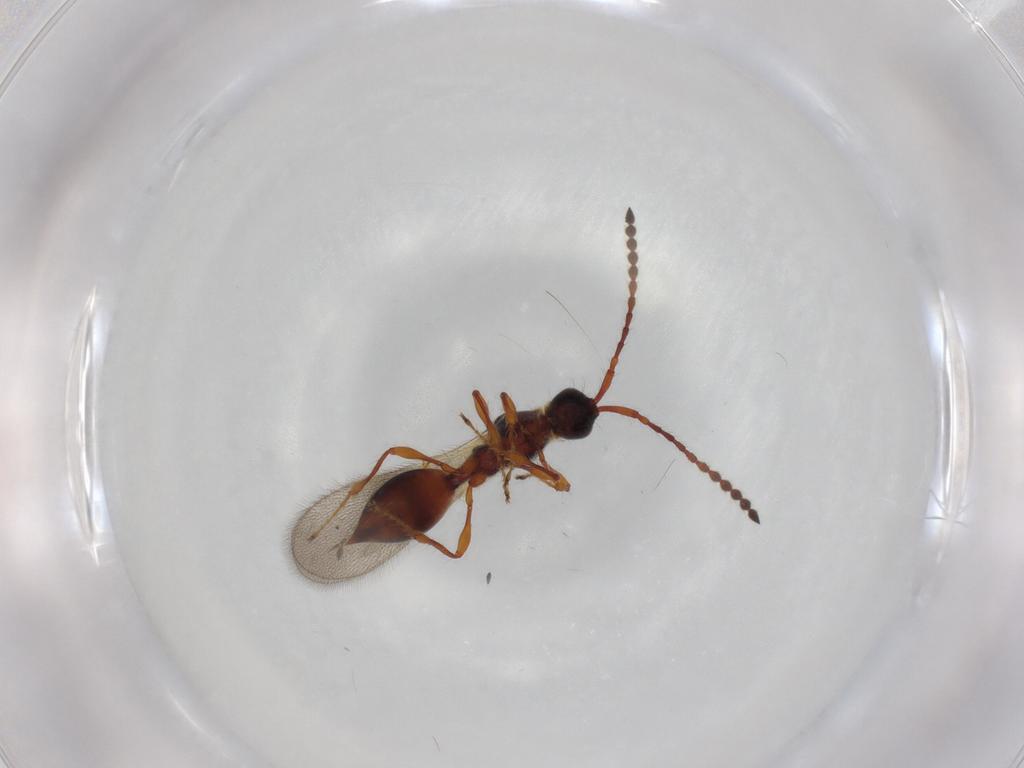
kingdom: Animalia
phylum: Arthropoda
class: Insecta
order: Hymenoptera
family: Diapriidae
